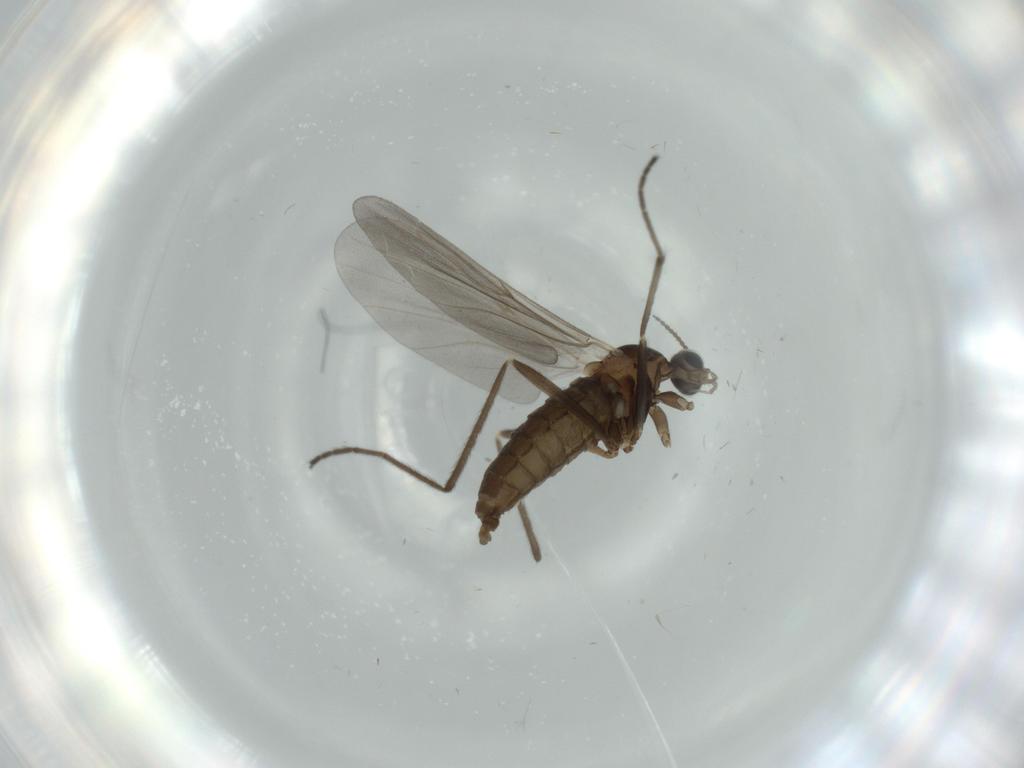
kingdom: Animalia
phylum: Arthropoda
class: Insecta
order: Diptera
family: Cecidomyiidae
